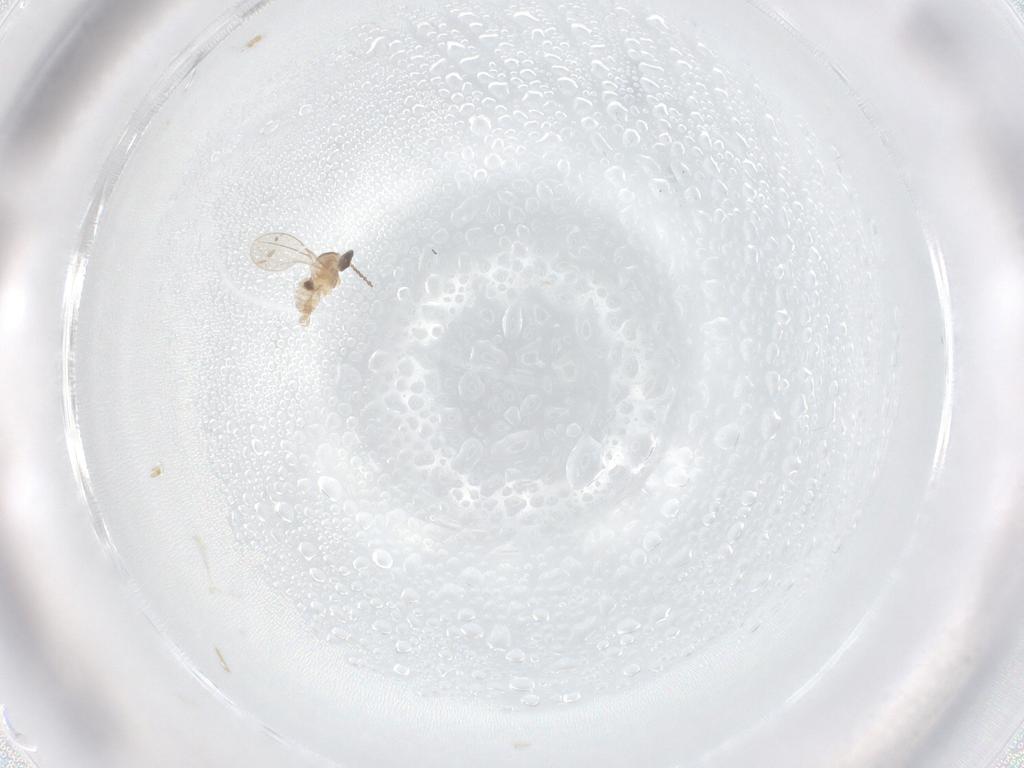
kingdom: Animalia
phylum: Arthropoda
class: Insecta
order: Diptera
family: Cecidomyiidae
